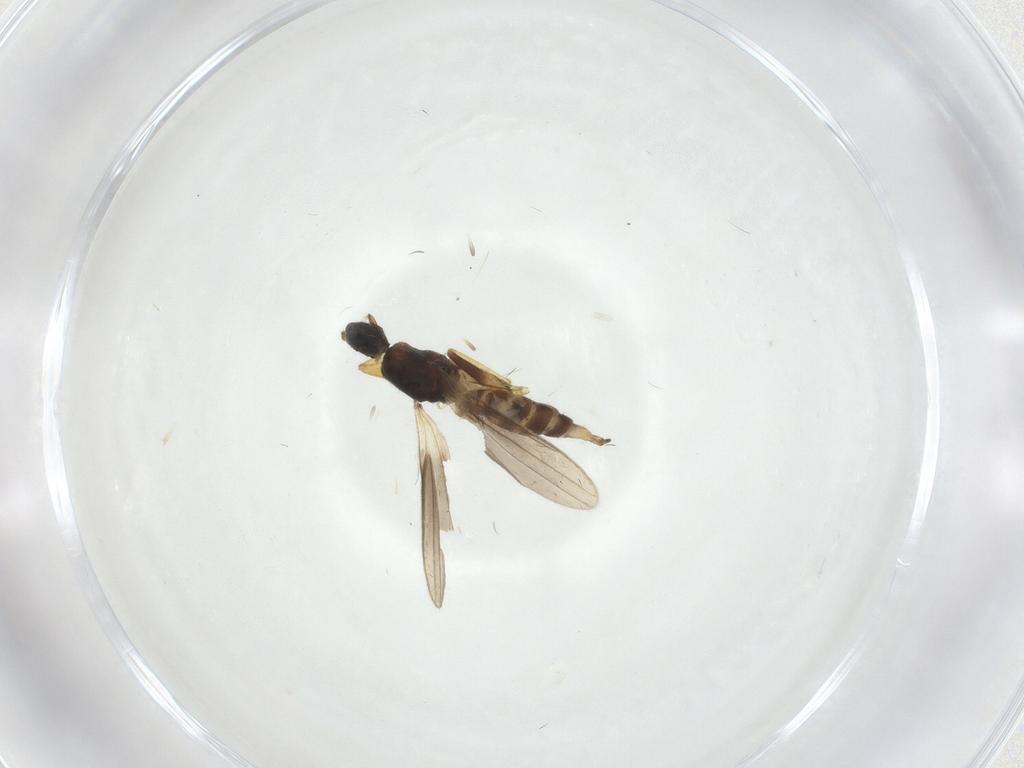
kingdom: Animalia
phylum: Arthropoda
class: Insecta
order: Diptera
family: Hybotidae
